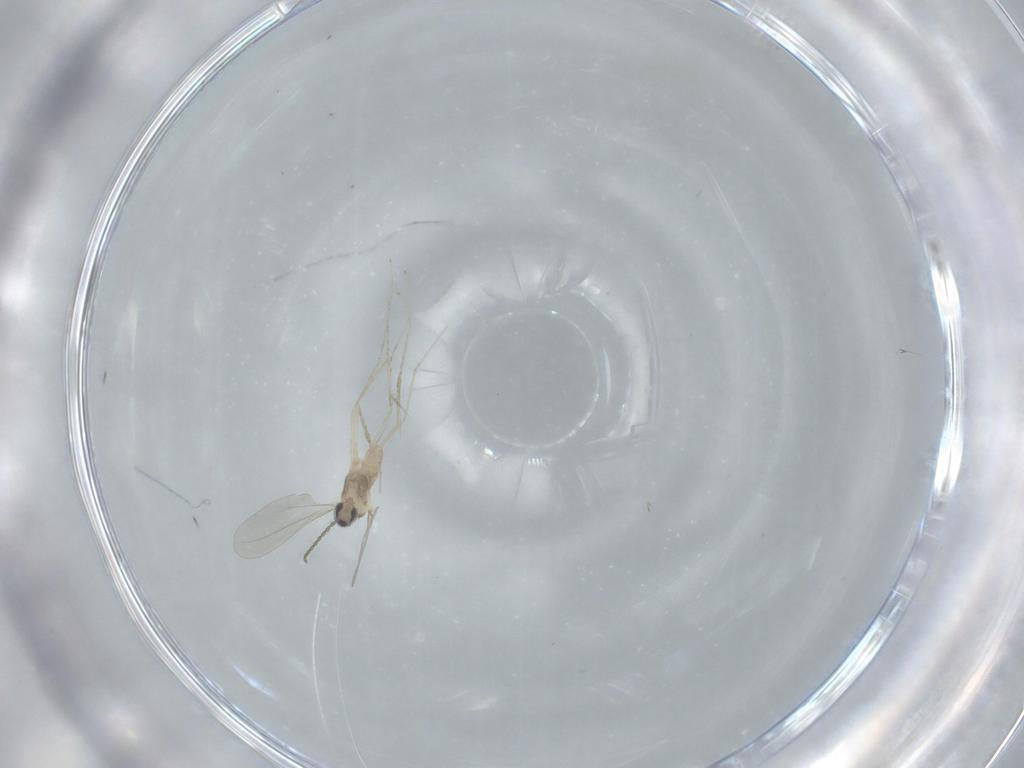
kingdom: Animalia
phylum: Arthropoda
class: Insecta
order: Diptera
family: Cecidomyiidae
